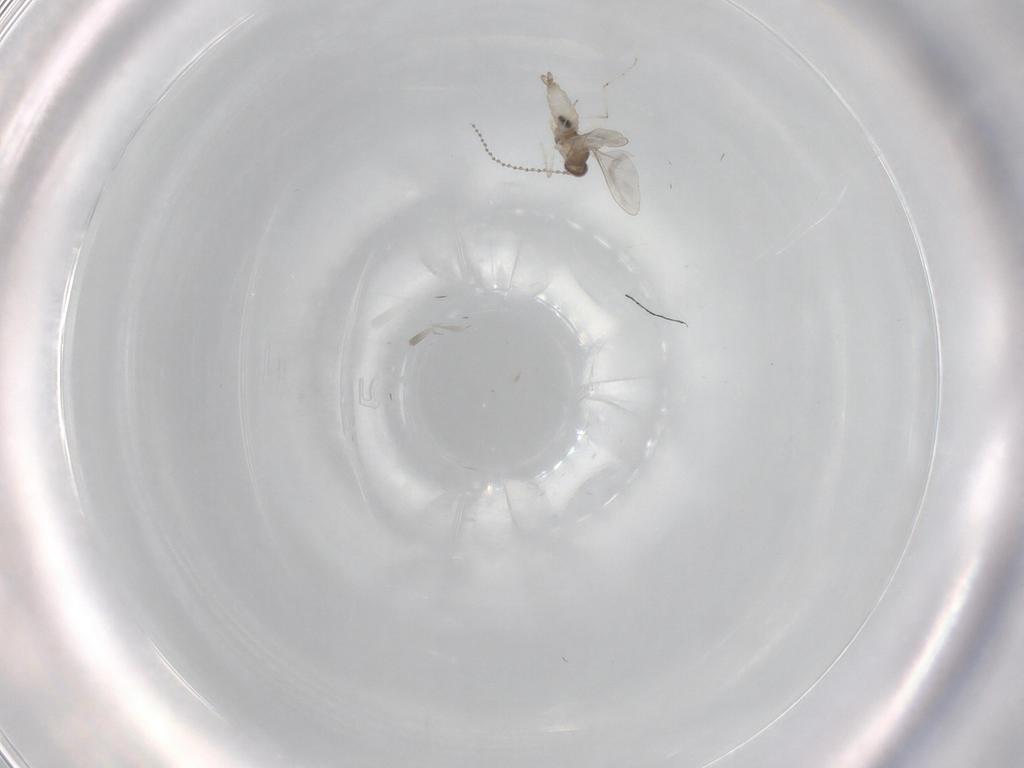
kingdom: Animalia
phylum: Arthropoda
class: Insecta
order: Diptera
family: Cecidomyiidae
